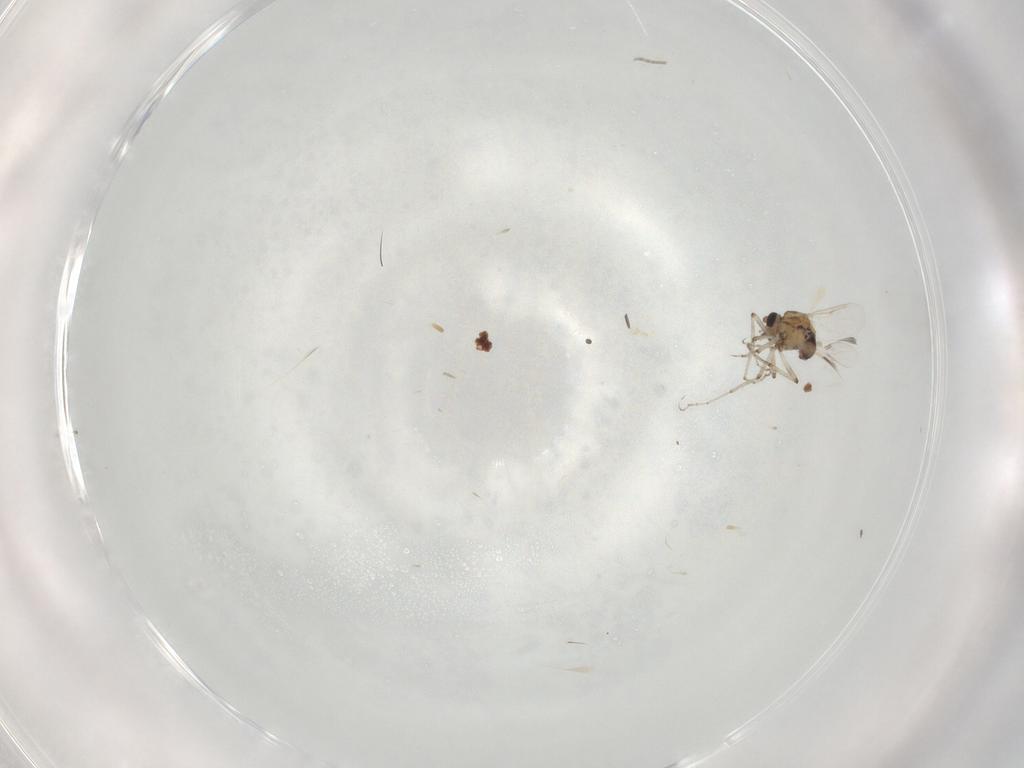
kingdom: Animalia
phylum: Arthropoda
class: Insecta
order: Diptera
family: Ceratopogonidae
